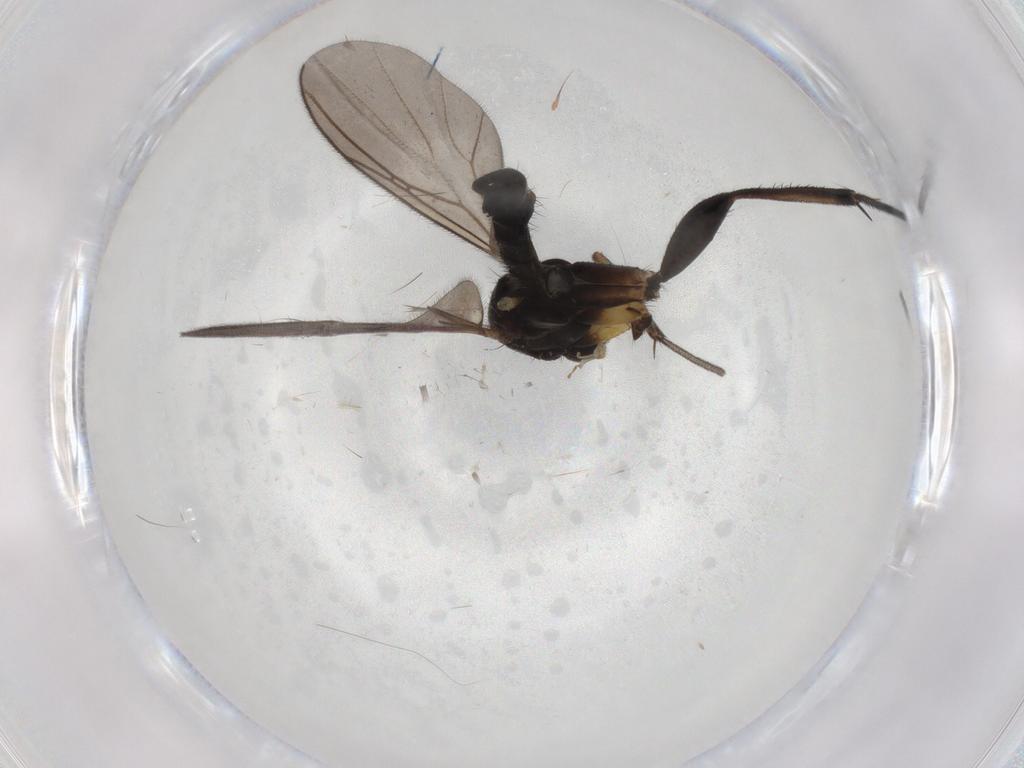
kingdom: Animalia
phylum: Arthropoda
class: Insecta
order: Diptera
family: Mycetophilidae
